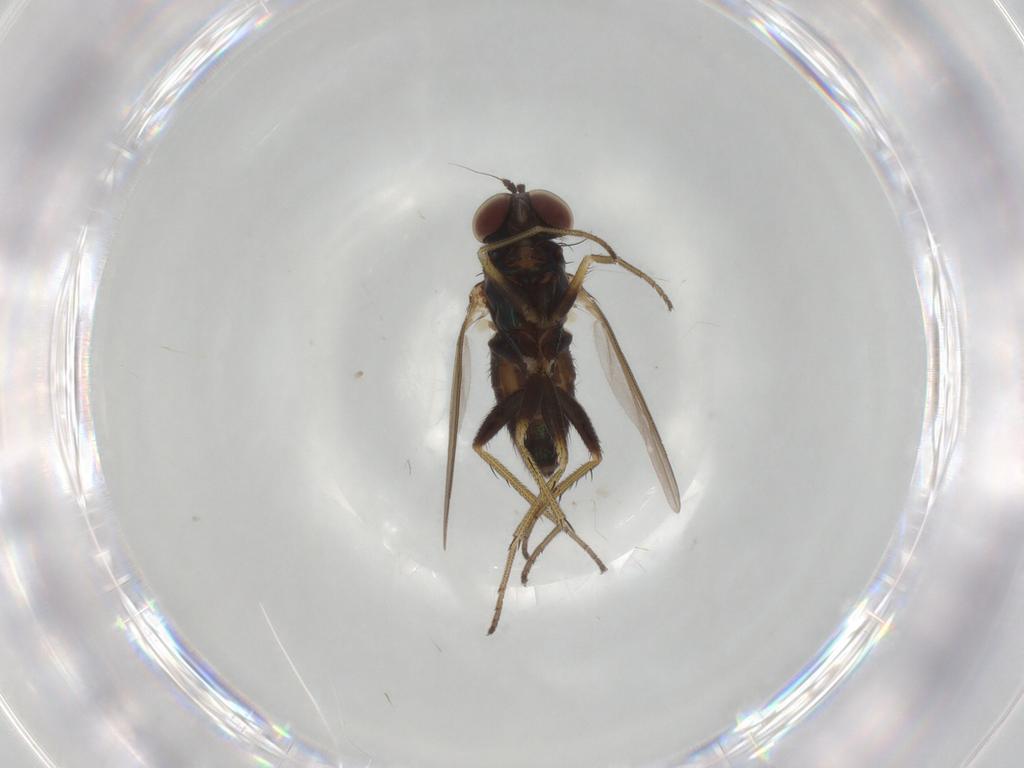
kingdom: Animalia
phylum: Arthropoda
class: Insecta
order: Diptera
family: Dolichopodidae
